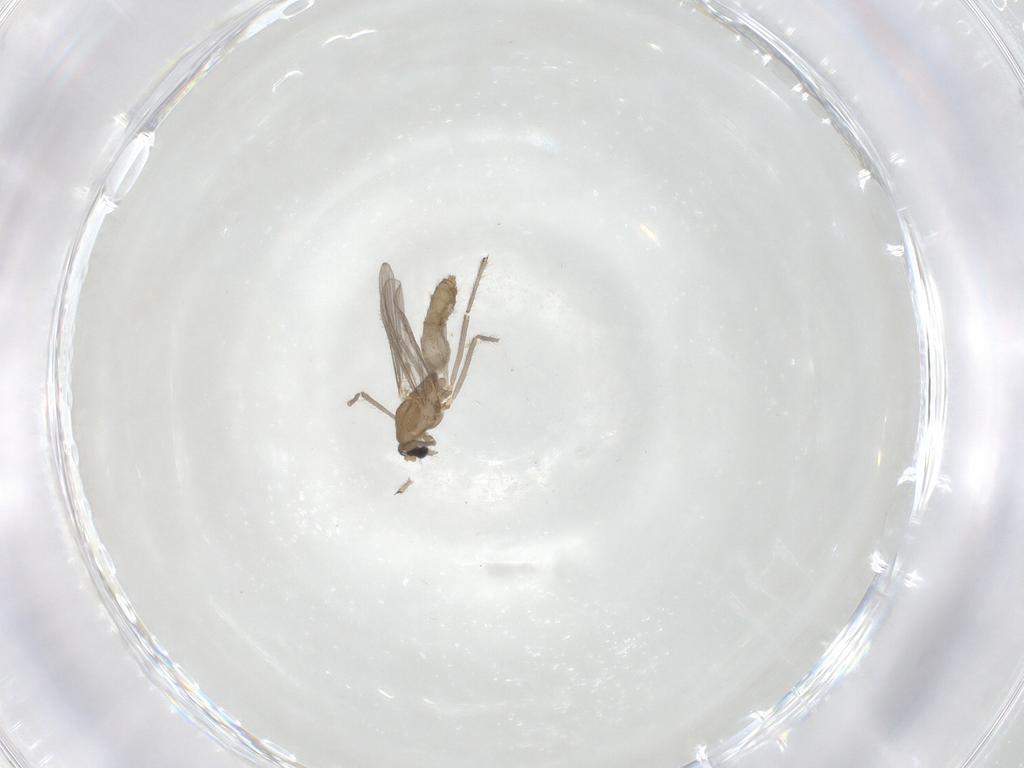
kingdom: Animalia
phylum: Arthropoda
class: Insecta
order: Diptera
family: Chironomidae
